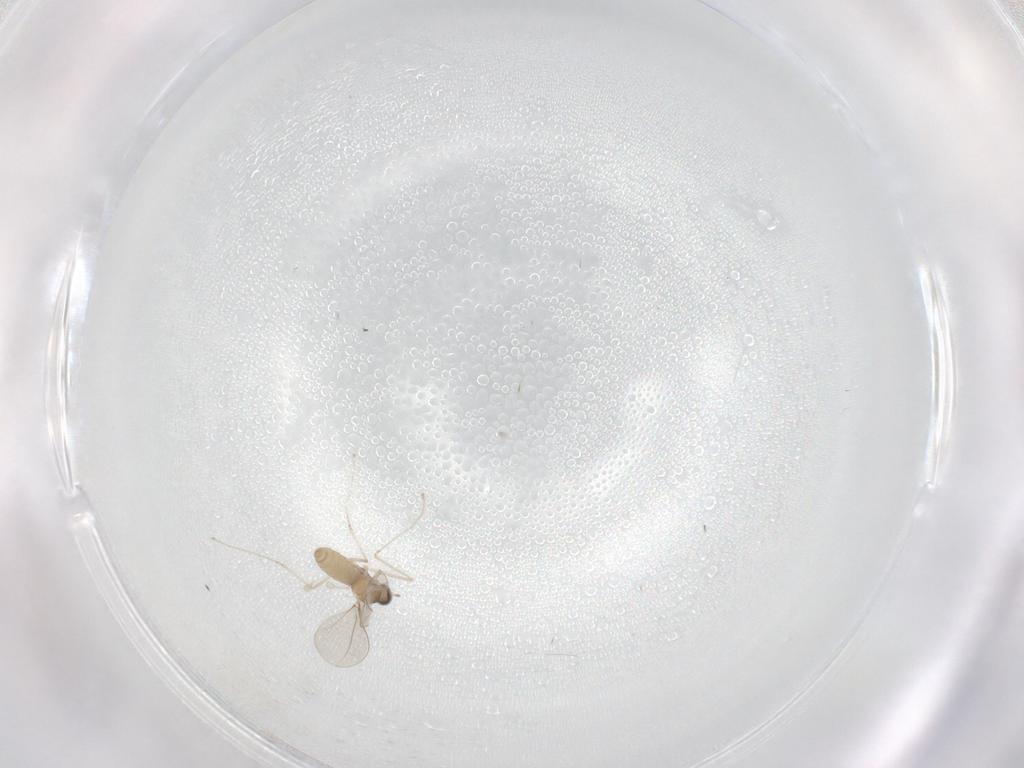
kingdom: Animalia
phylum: Arthropoda
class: Insecta
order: Diptera
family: Cecidomyiidae
